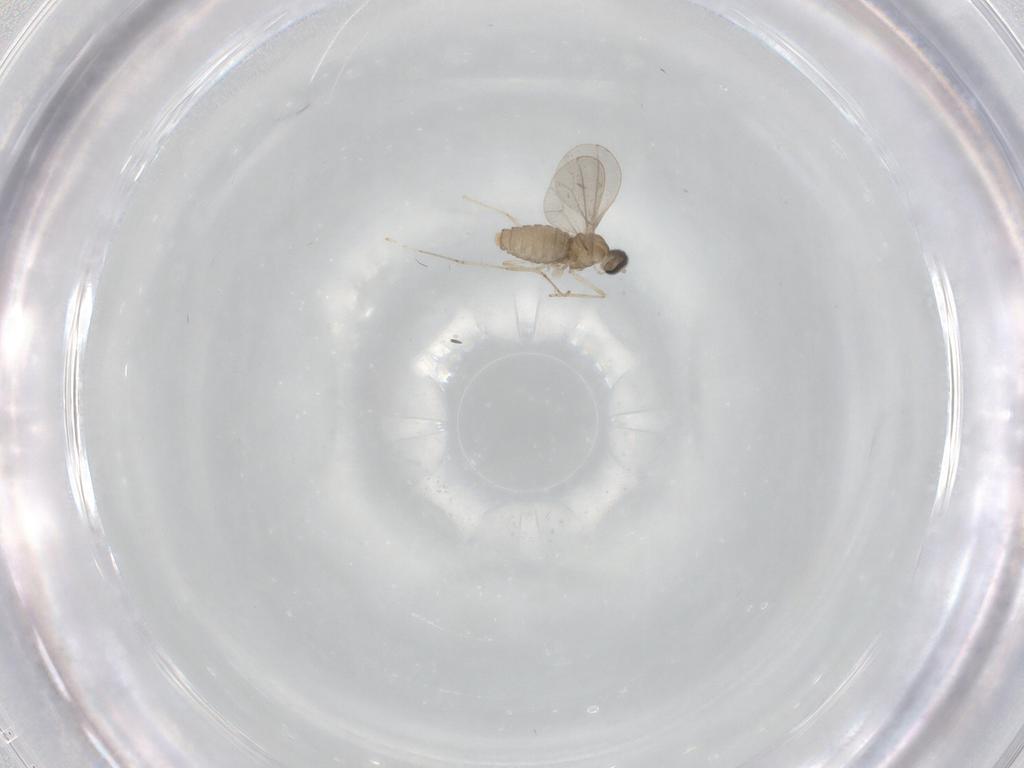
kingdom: Animalia
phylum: Arthropoda
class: Insecta
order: Diptera
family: Cecidomyiidae
